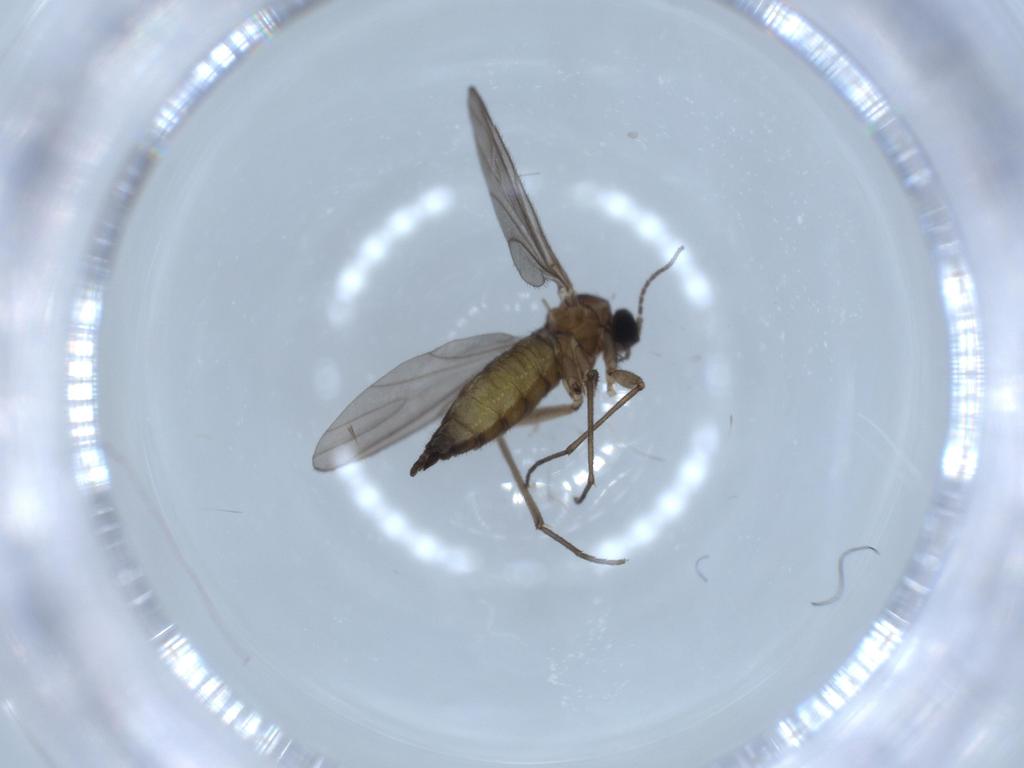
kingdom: Animalia
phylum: Arthropoda
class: Insecta
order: Diptera
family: Sciaridae
